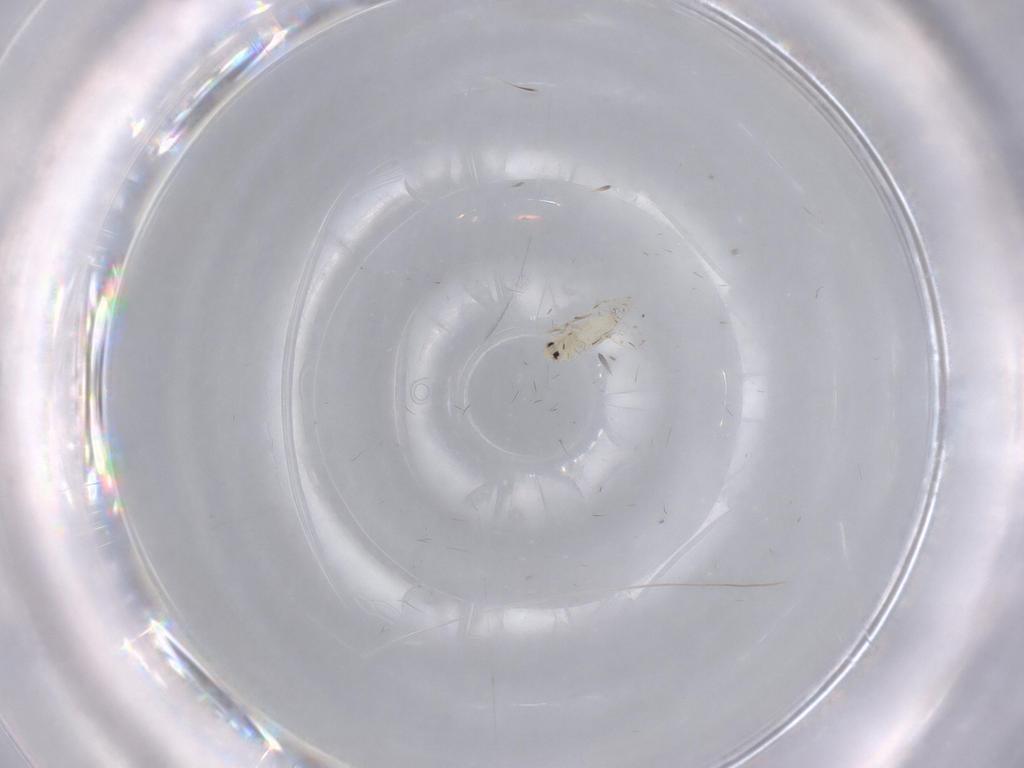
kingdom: Animalia
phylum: Arthropoda
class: Insecta
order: Hemiptera
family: Aleyrodidae
